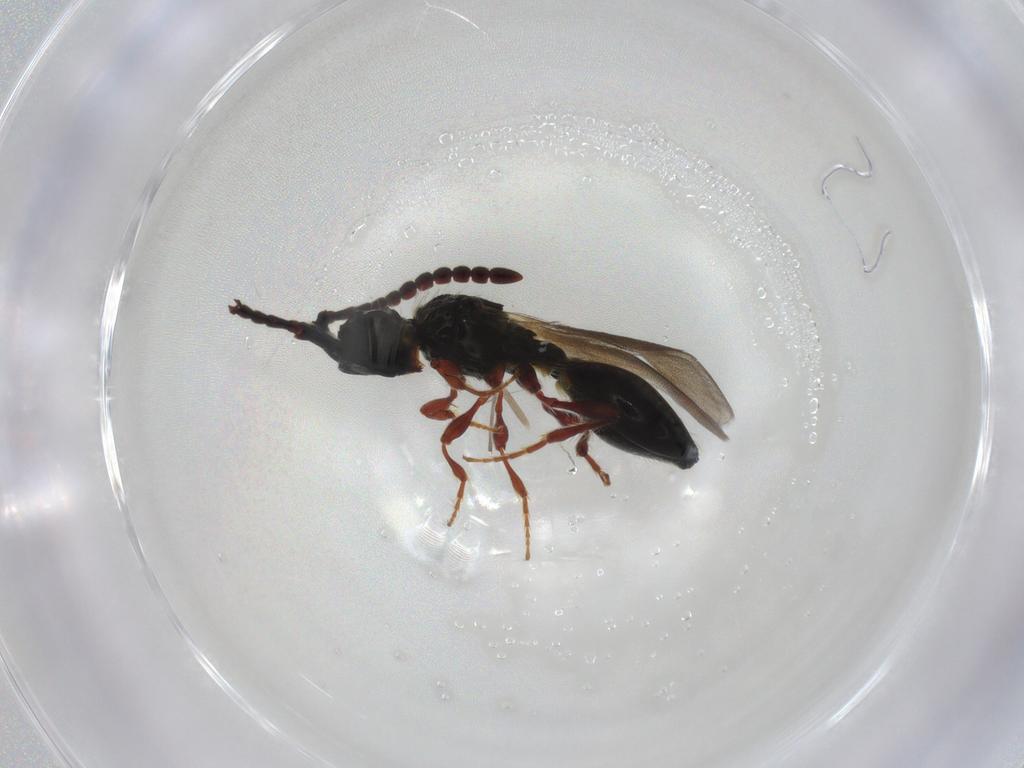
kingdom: Animalia
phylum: Arthropoda
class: Insecta
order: Hymenoptera
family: Diapriidae
